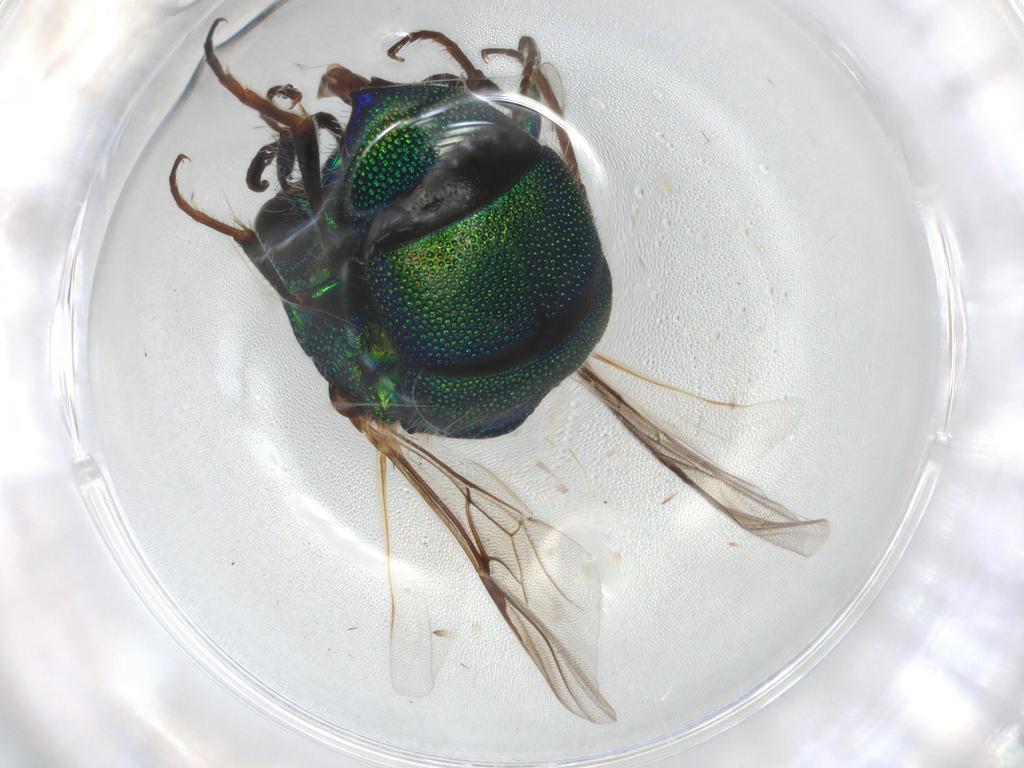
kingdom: Animalia
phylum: Arthropoda
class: Insecta
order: Hymenoptera
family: Chrysididae
